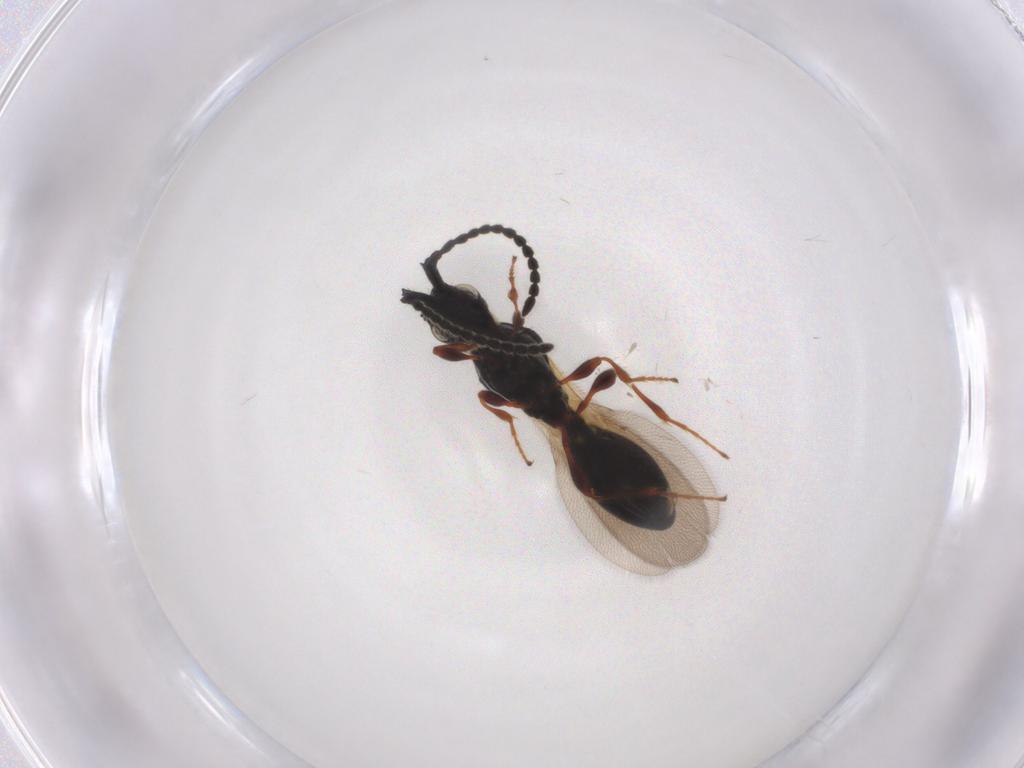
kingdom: Animalia
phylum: Arthropoda
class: Insecta
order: Hymenoptera
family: Diapriidae
